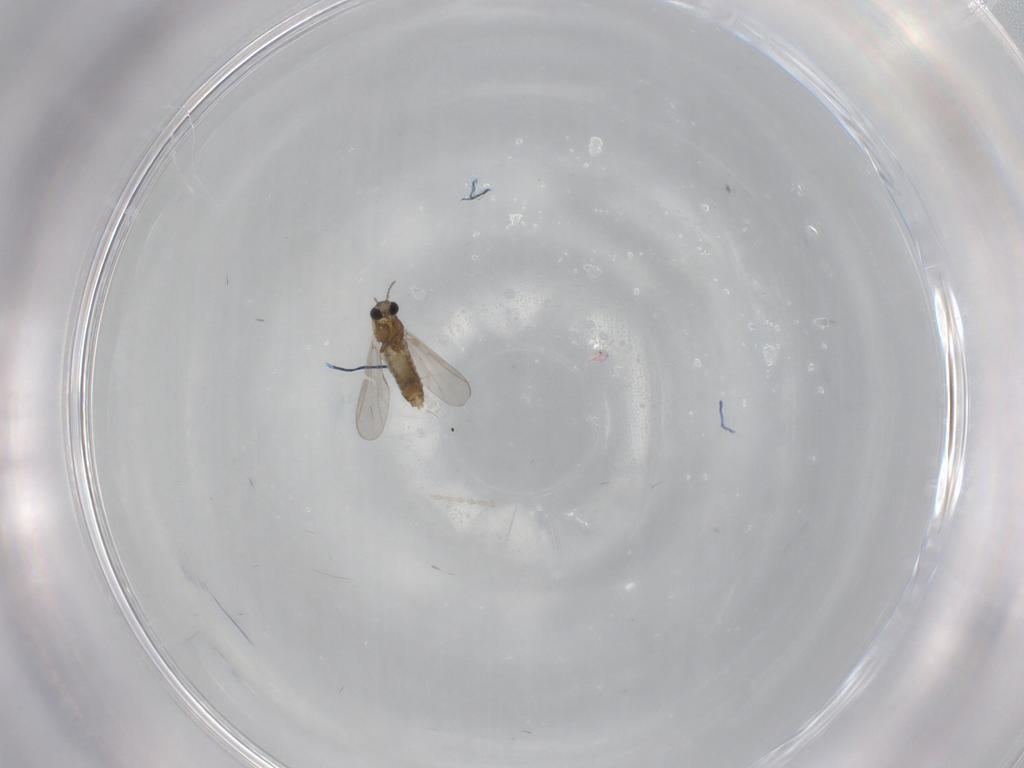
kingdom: Animalia
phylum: Arthropoda
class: Insecta
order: Diptera
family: Chironomidae
